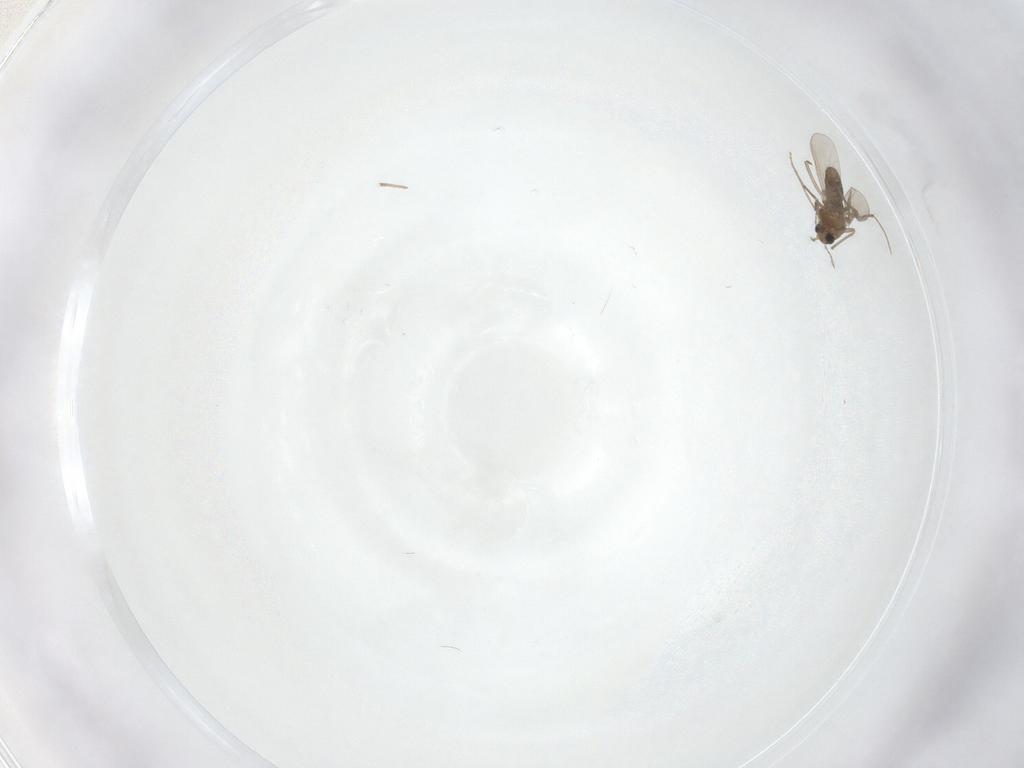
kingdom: Animalia
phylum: Arthropoda
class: Insecta
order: Diptera
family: Chironomidae
